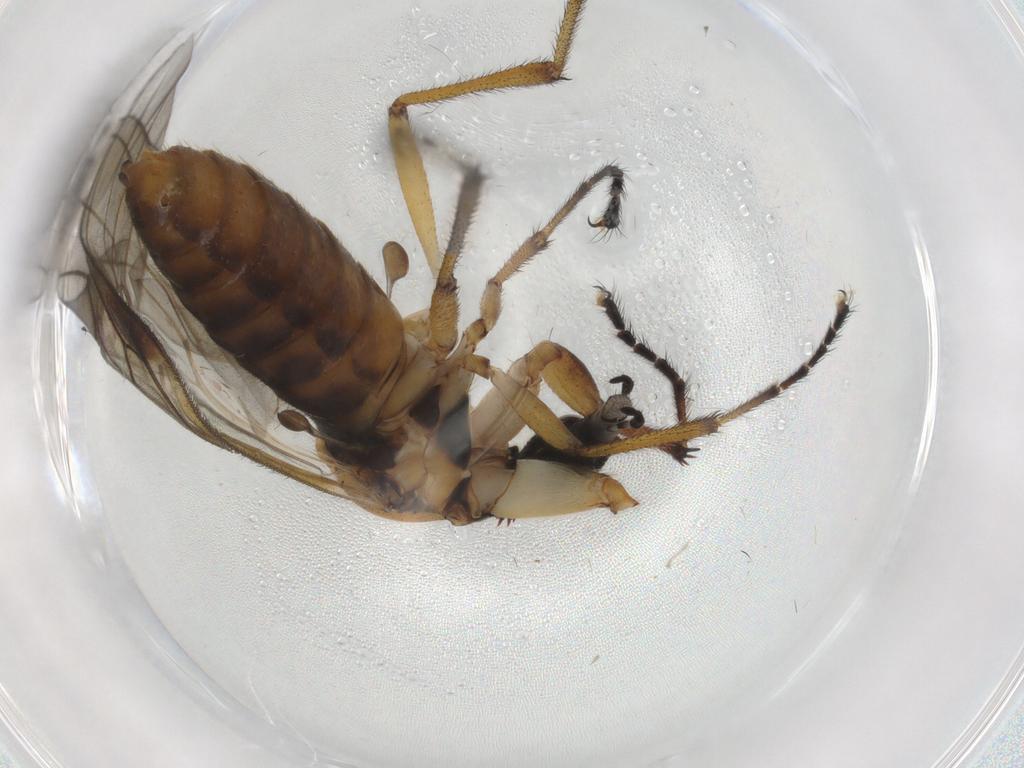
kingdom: Animalia
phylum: Arthropoda
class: Insecta
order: Diptera
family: Bibionidae
